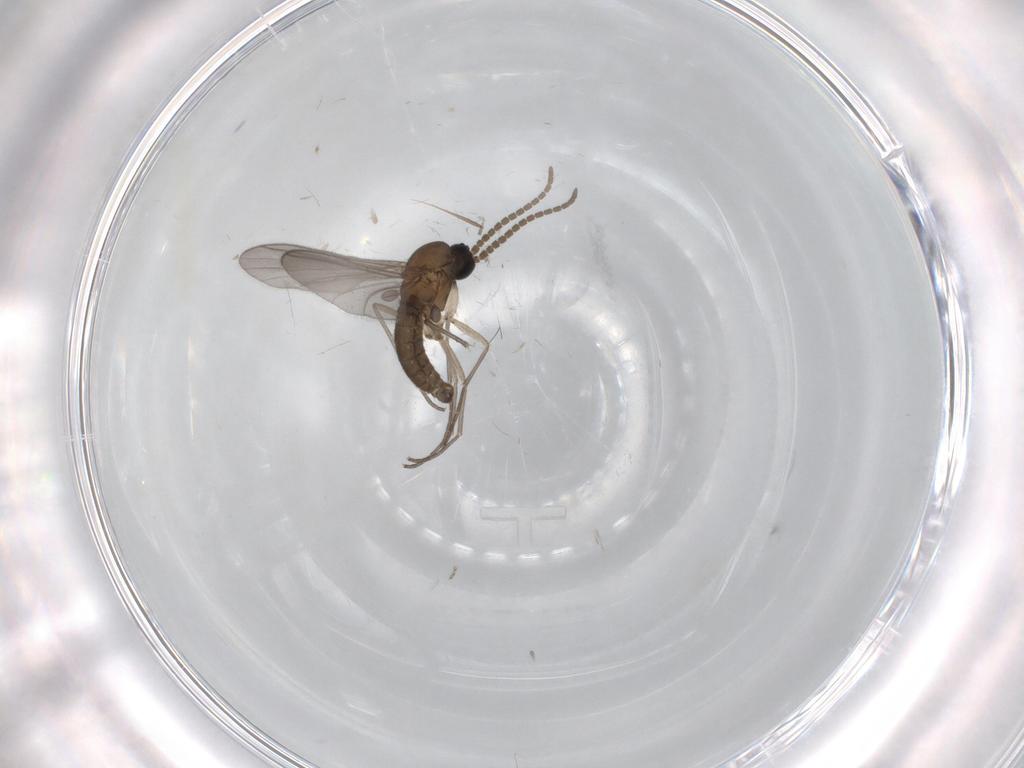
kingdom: Animalia
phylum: Arthropoda
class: Insecta
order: Diptera
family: Sciaridae
